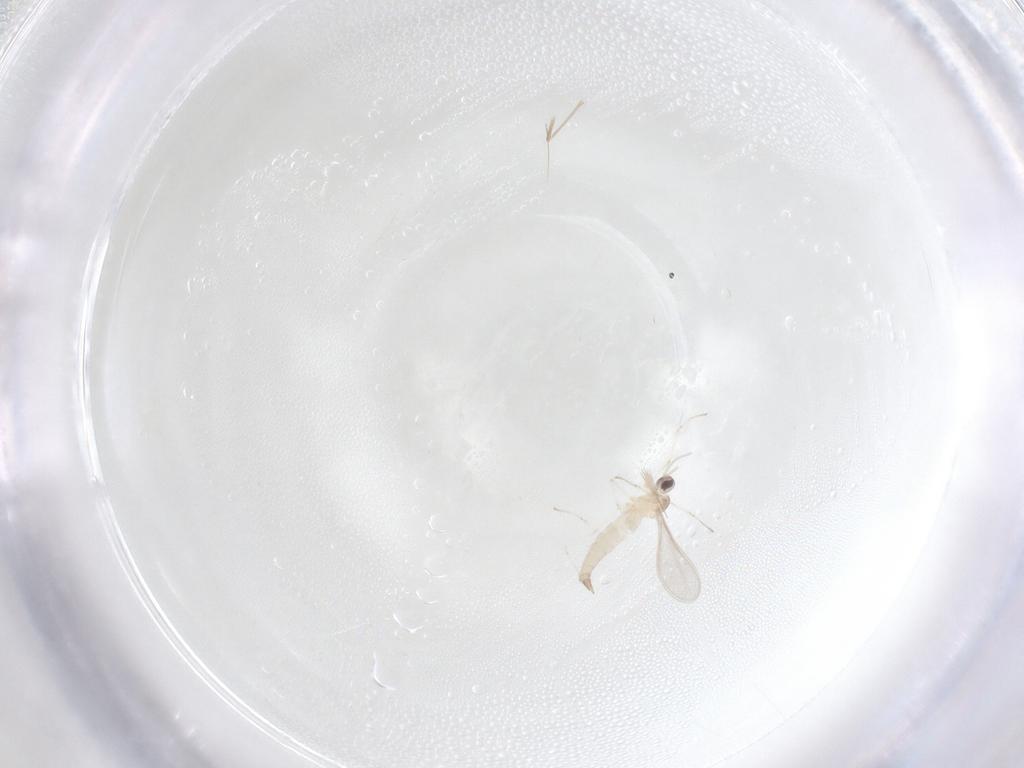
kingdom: Animalia
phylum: Arthropoda
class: Insecta
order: Diptera
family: Cecidomyiidae
